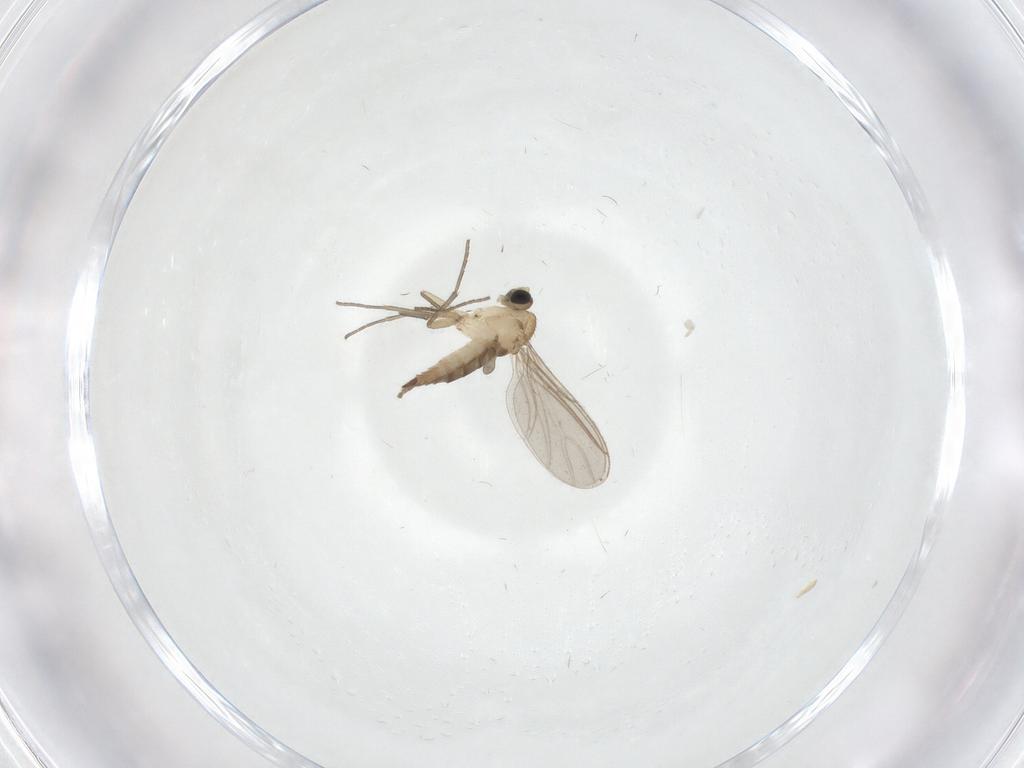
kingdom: Animalia
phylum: Arthropoda
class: Insecta
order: Diptera
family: Sciaridae
